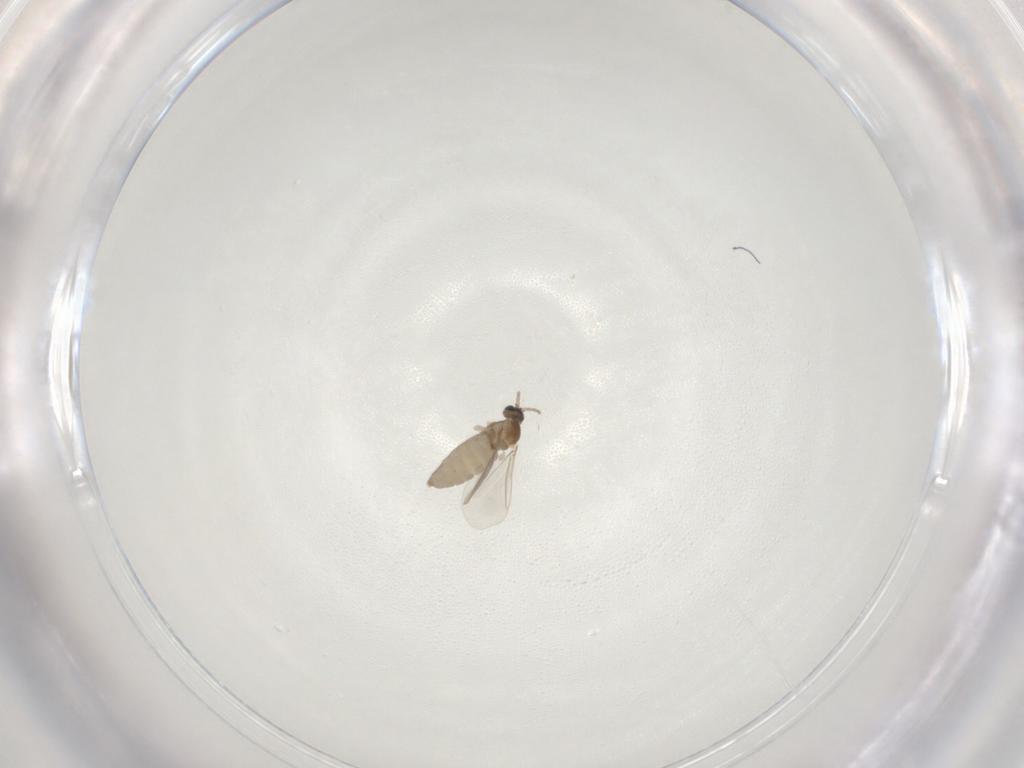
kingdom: Animalia
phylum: Arthropoda
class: Insecta
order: Diptera
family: Cecidomyiidae
